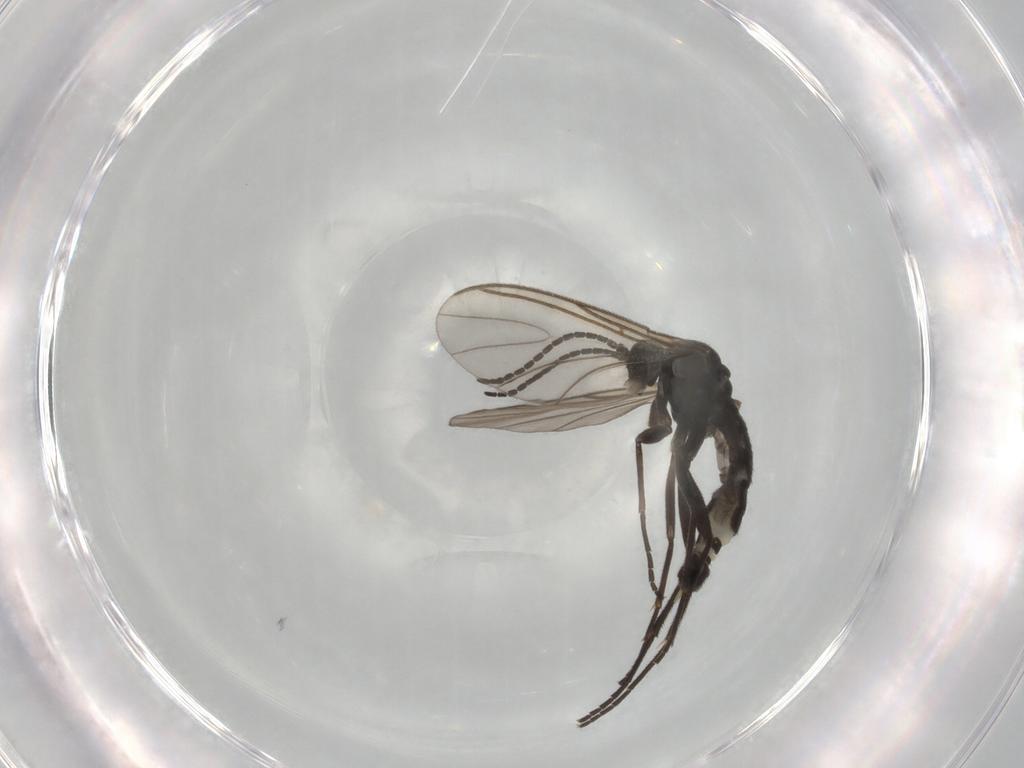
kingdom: Animalia
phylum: Arthropoda
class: Insecta
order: Diptera
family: Sciaridae
